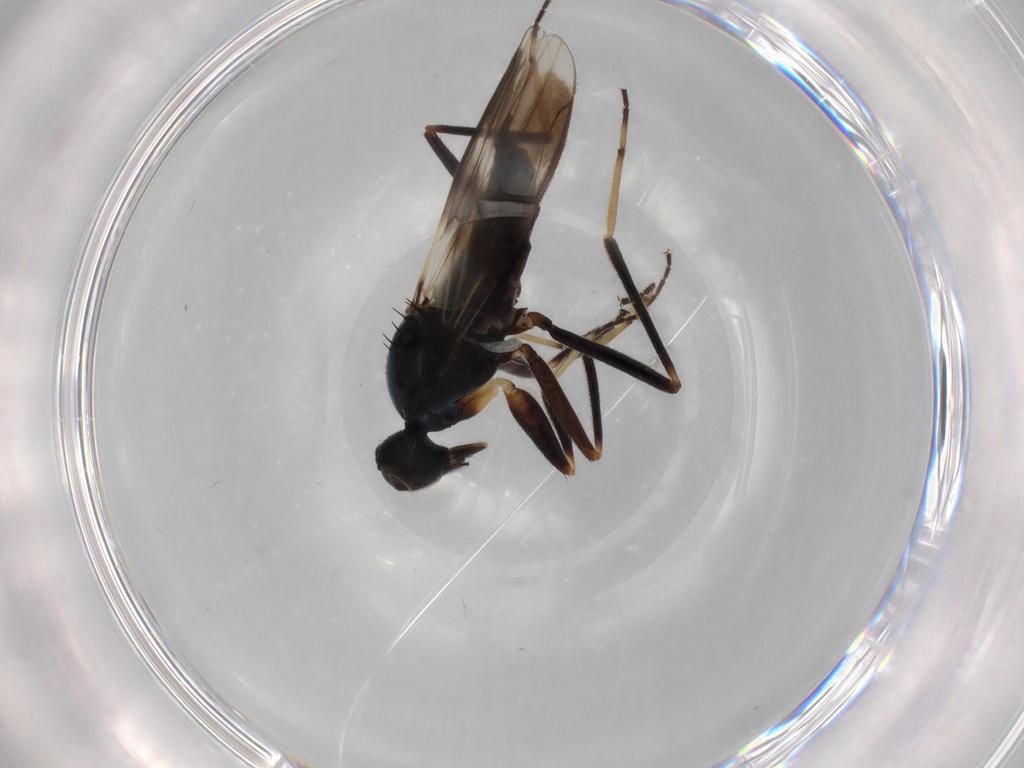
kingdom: Animalia
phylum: Arthropoda
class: Insecta
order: Diptera
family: Hybotidae
